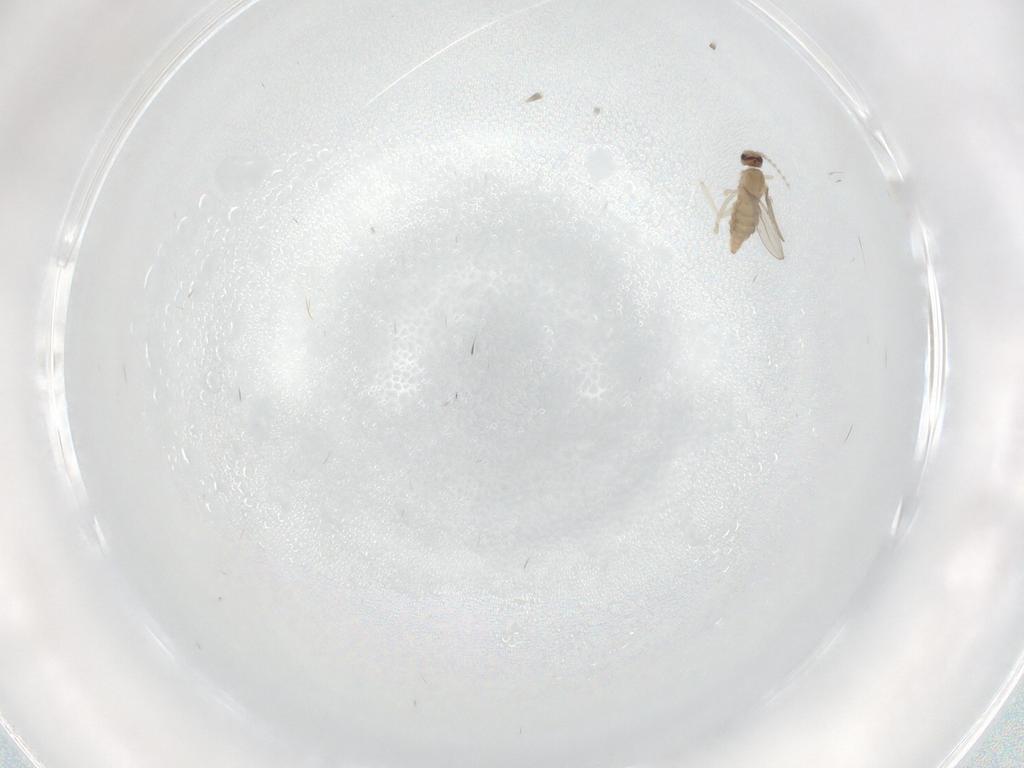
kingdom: Animalia
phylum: Arthropoda
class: Insecta
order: Diptera
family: Cecidomyiidae
